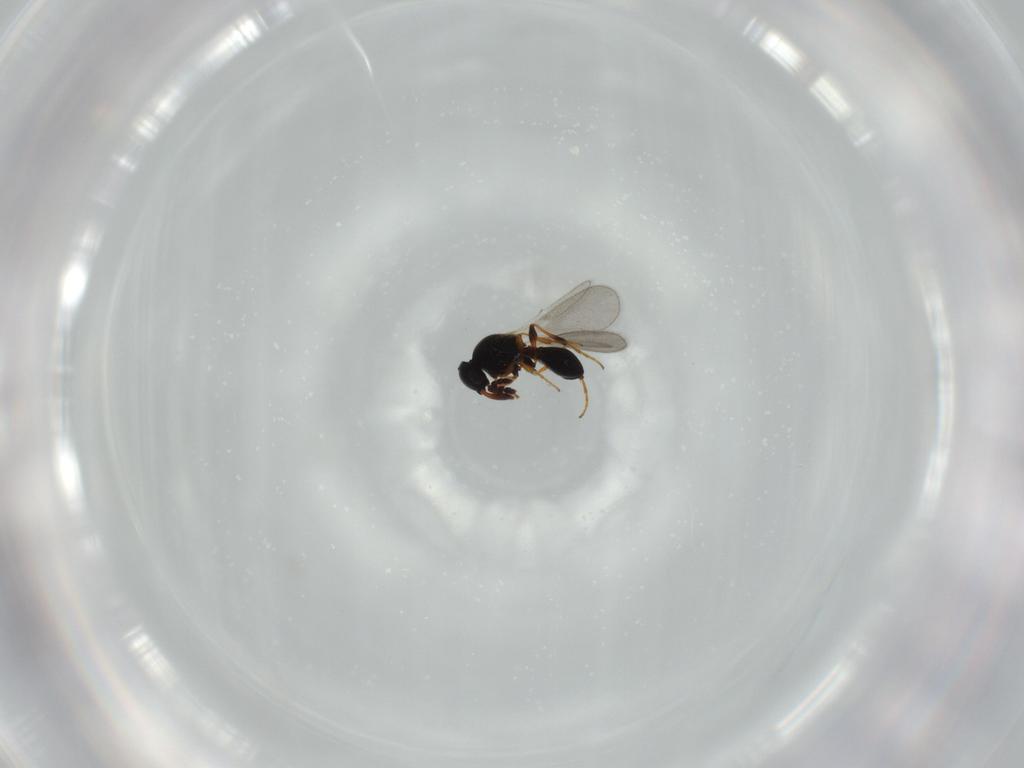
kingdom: Animalia
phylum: Arthropoda
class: Insecta
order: Hymenoptera
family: Platygastridae
